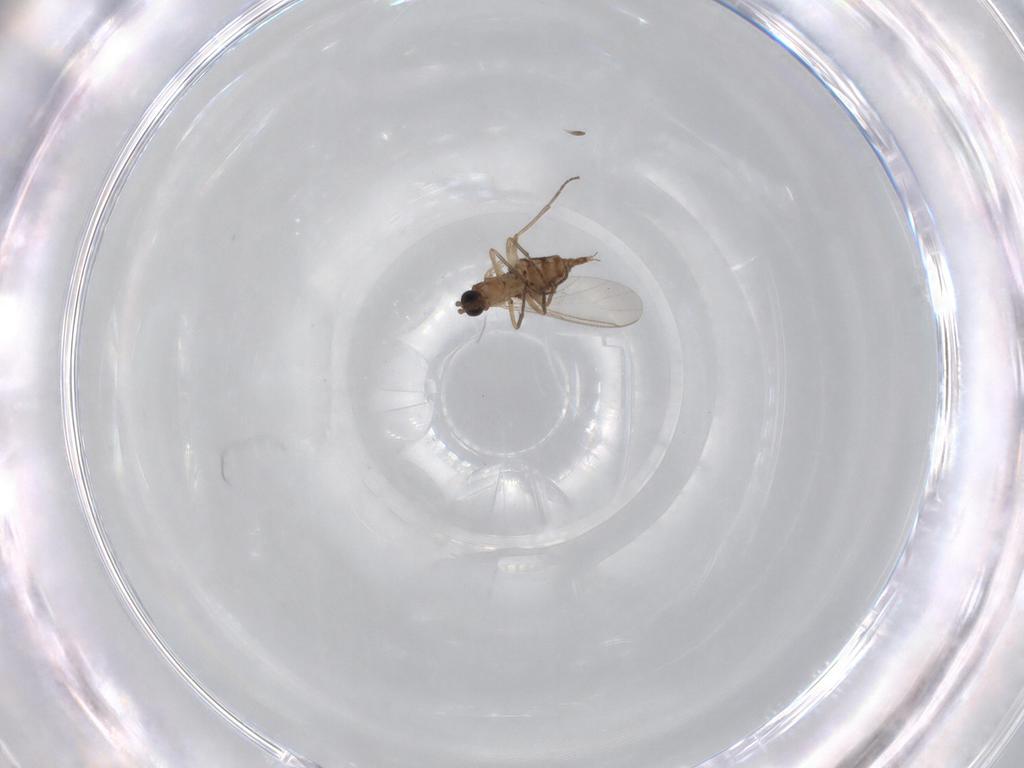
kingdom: Animalia
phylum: Arthropoda
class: Insecta
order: Diptera
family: Sciaridae
